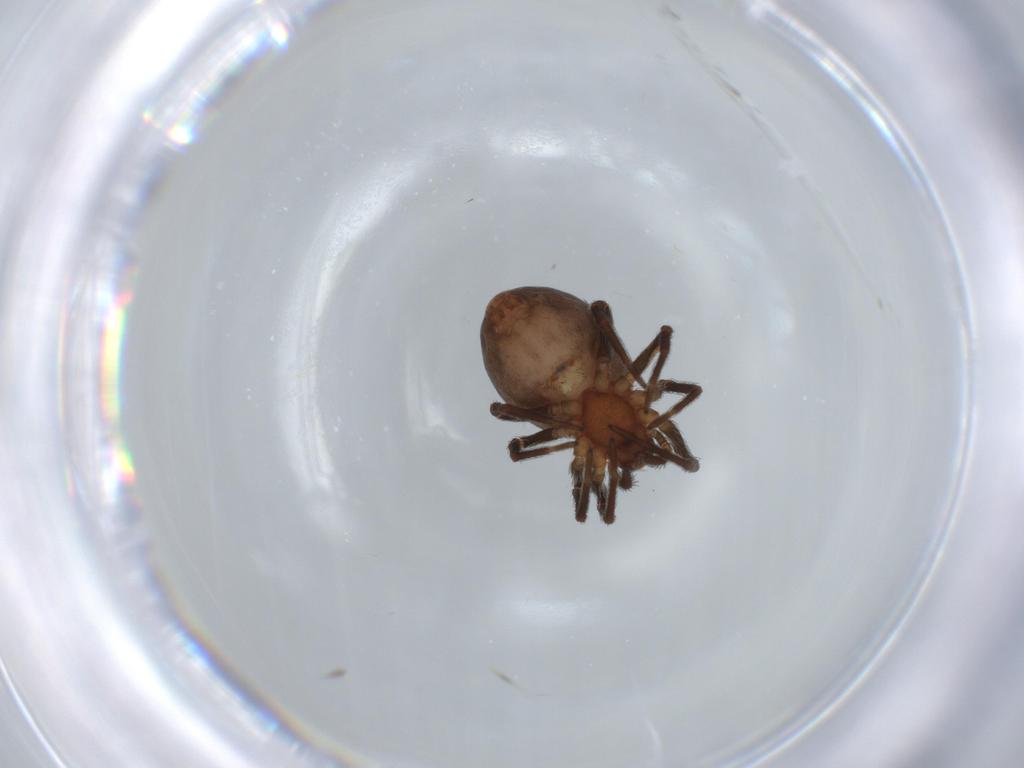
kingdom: Animalia
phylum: Arthropoda
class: Arachnida
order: Araneae
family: Dictynidae
